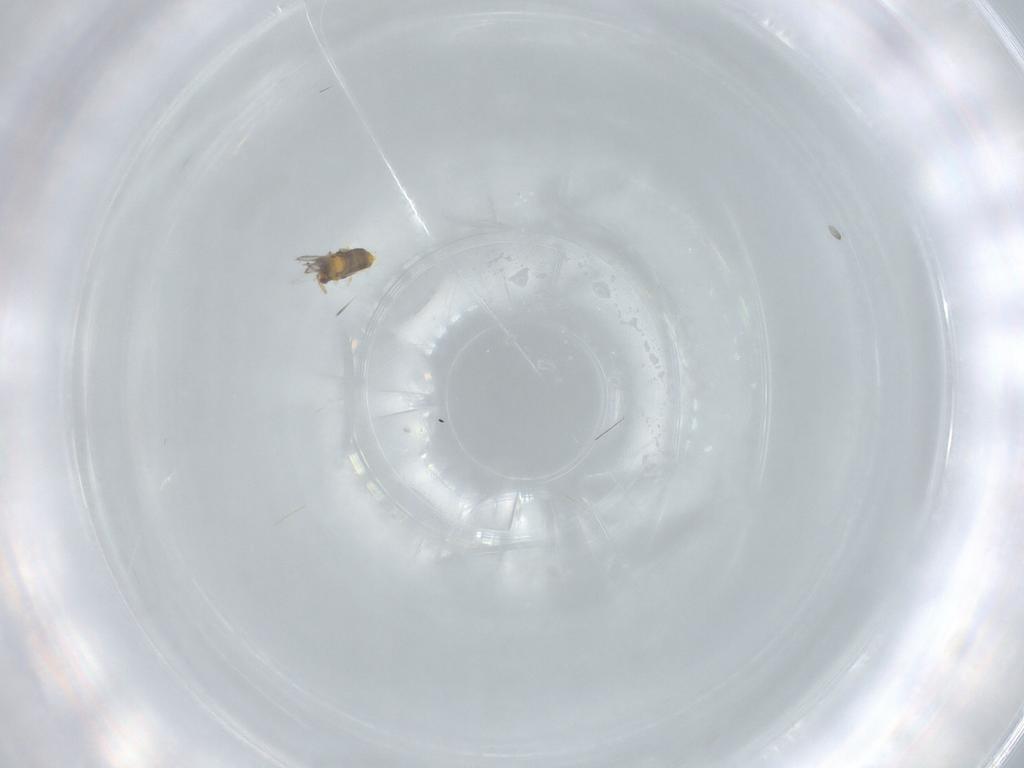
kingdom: Animalia
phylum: Arthropoda
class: Insecta
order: Hymenoptera
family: Aphelinidae
